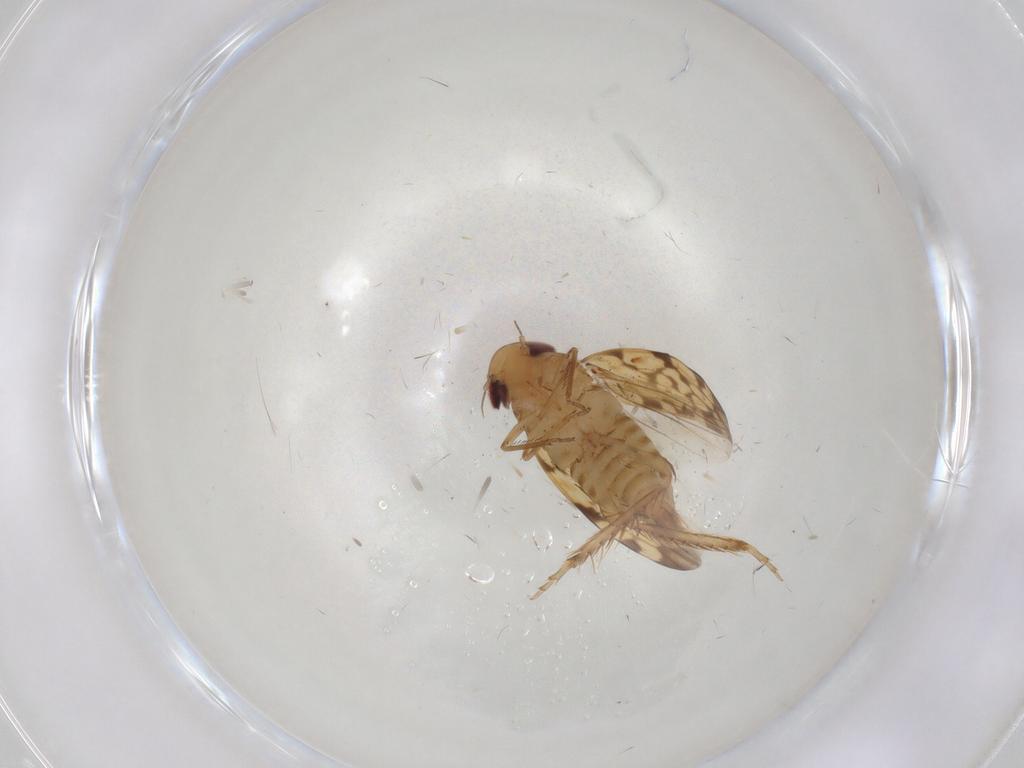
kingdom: Animalia
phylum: Arthropoda
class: Insecta
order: Hemiptera
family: Cicadellidae
